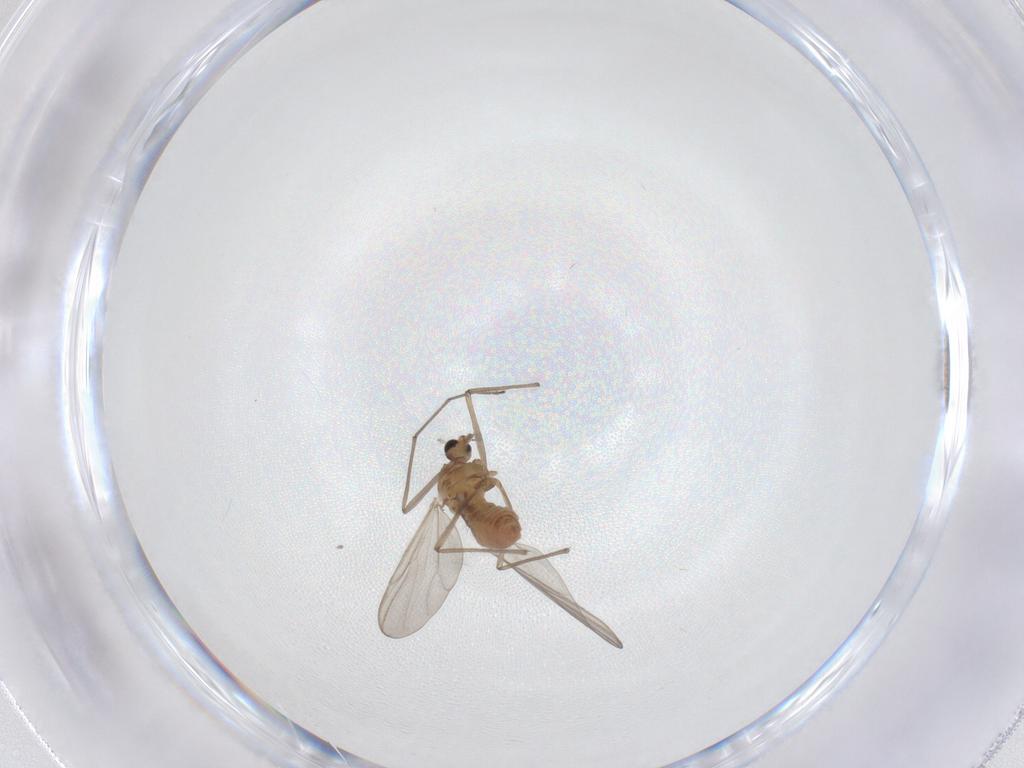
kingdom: Animalia
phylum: Arthropoda
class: Insecta
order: Diptera
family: Chironomidae
